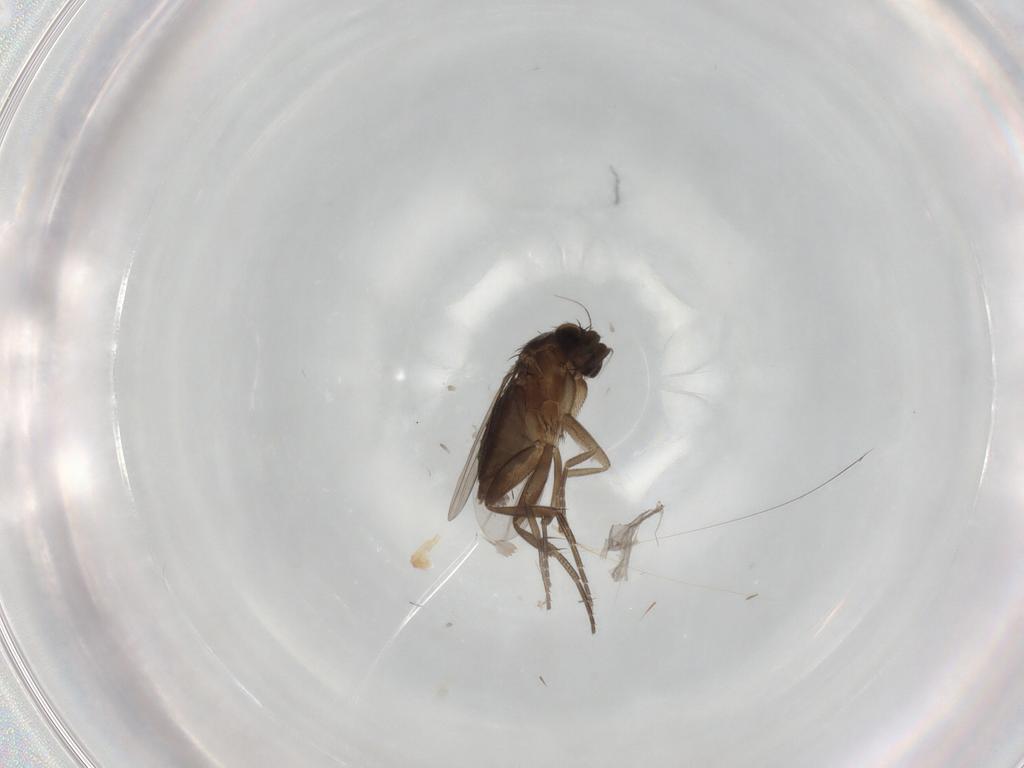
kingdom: Animalia
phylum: Arthropoda
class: Insecta
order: Diptera
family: Phoridae
